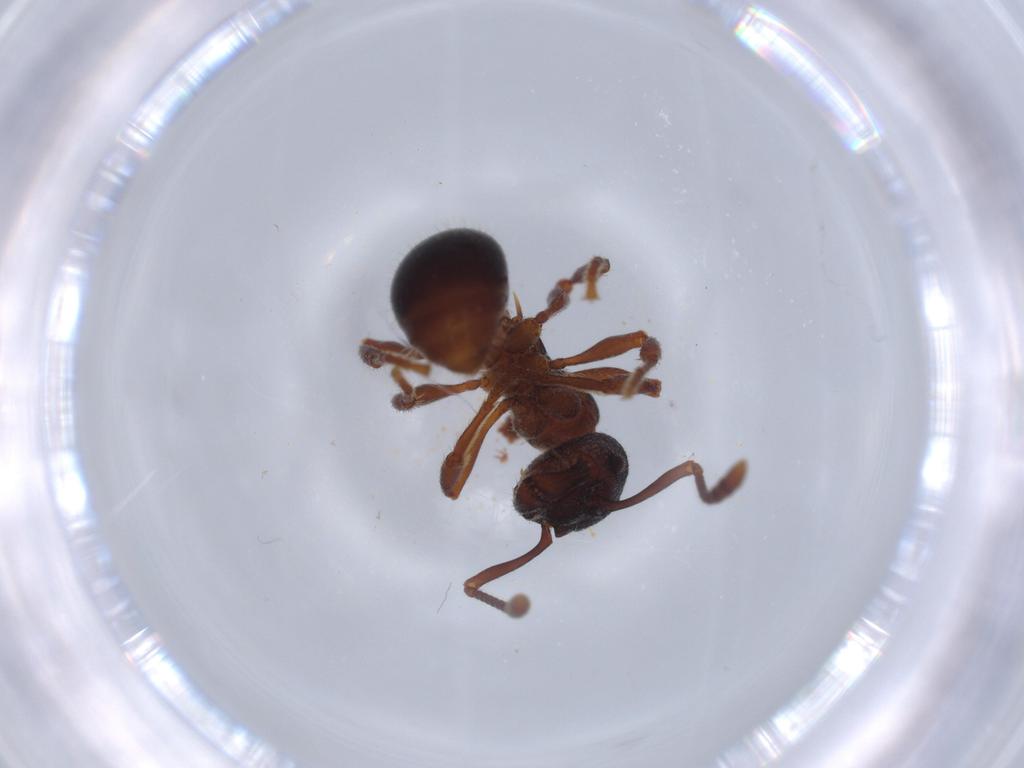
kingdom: Animalia
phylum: Arthropoda
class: Insecta
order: Hymenoptera
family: Formicidae
